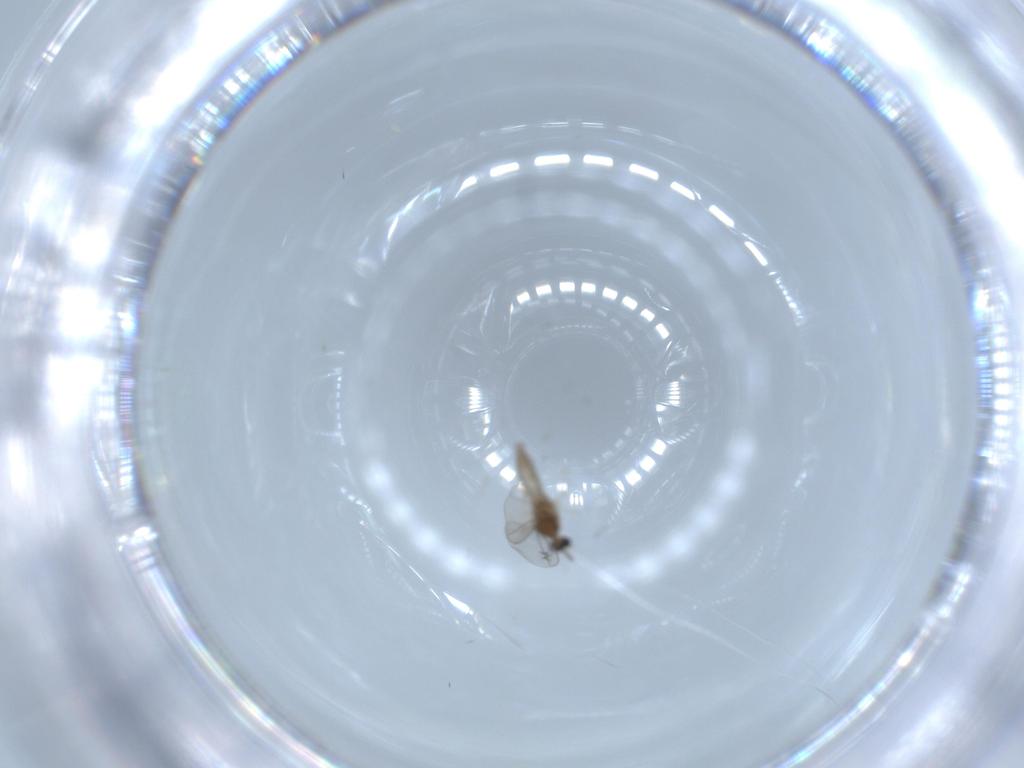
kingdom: Animalia
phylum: Arthropoda
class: Insecta
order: Diptera
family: Cecidomyiidae
